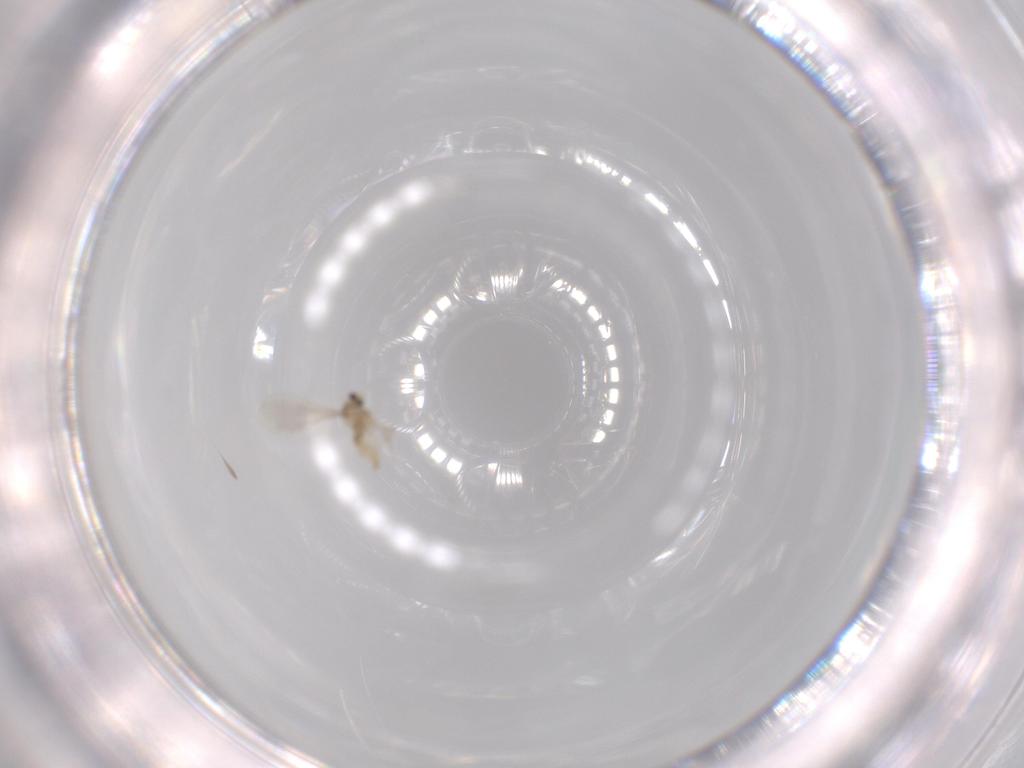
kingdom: Animalia
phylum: Arthropoda
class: Insecta
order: Diptera
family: Cecidomyiidae
